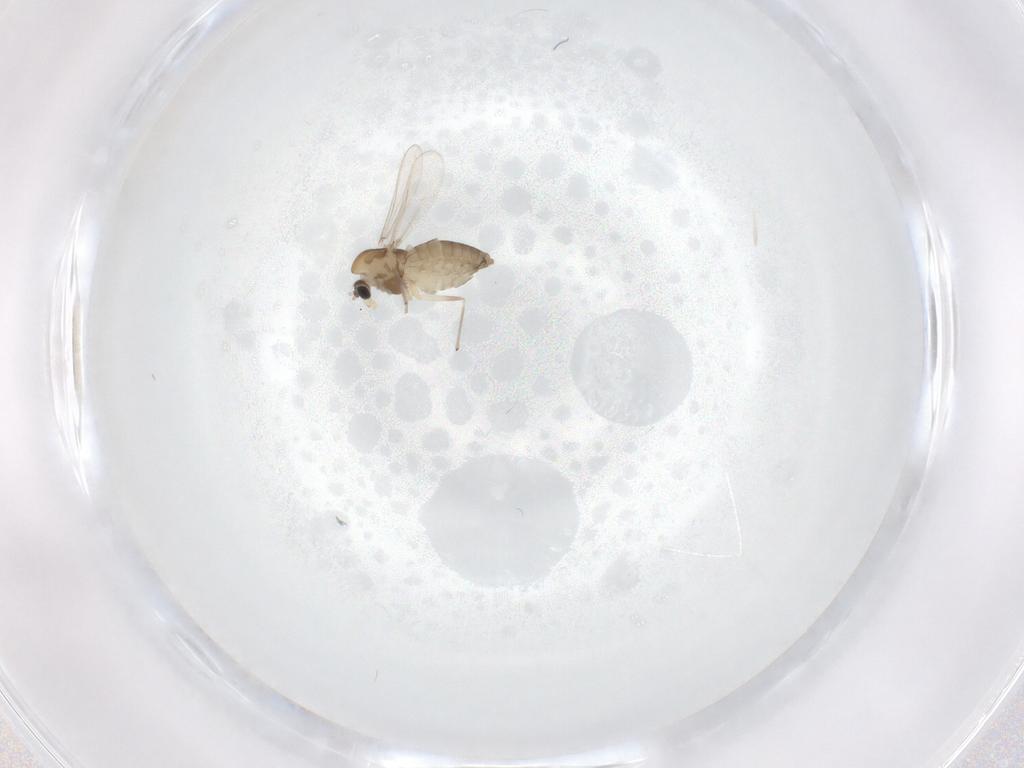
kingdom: Animalia
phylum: Arthropoda
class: Insecta
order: Diptera
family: Chironomidae
